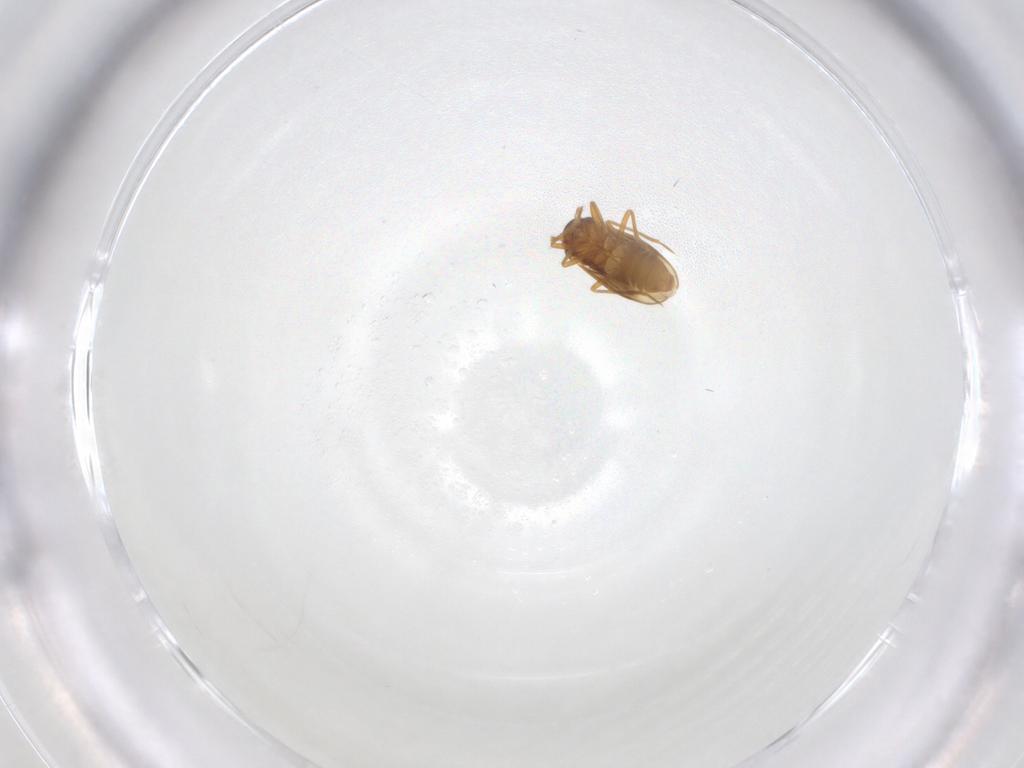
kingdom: Animalia
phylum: Arthropoda
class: Insecta
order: Hemiptera
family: Schizopteridae
